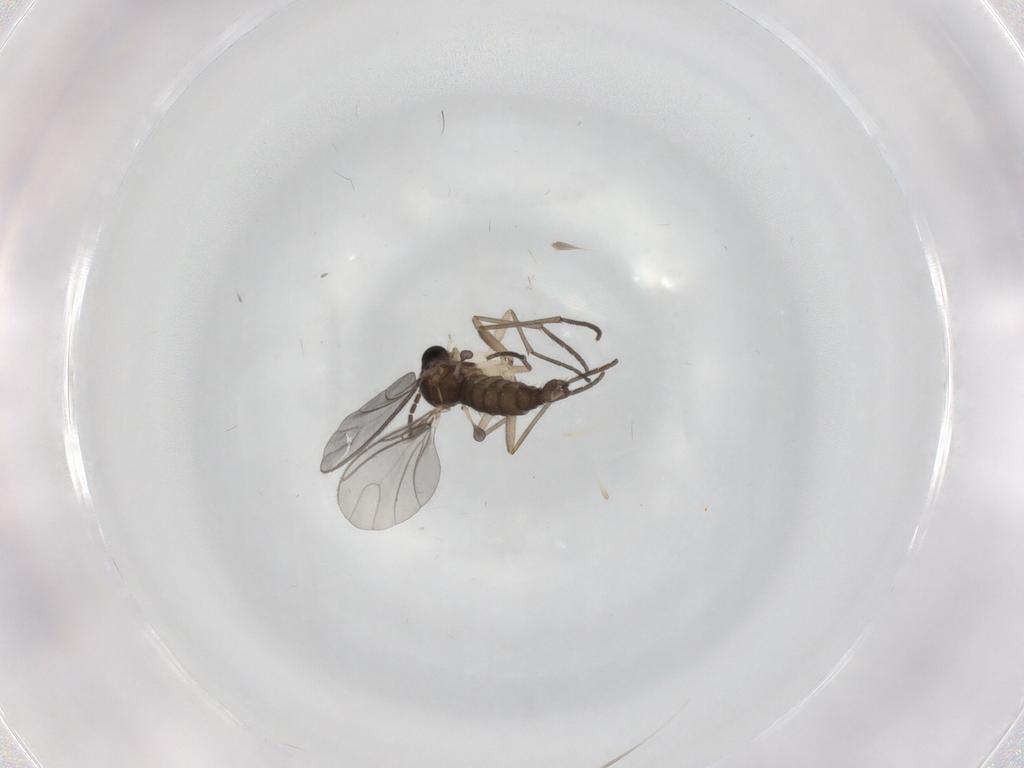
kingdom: Animalia
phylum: Arthropoda
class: Insecta
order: Diptera
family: Sciaridae
